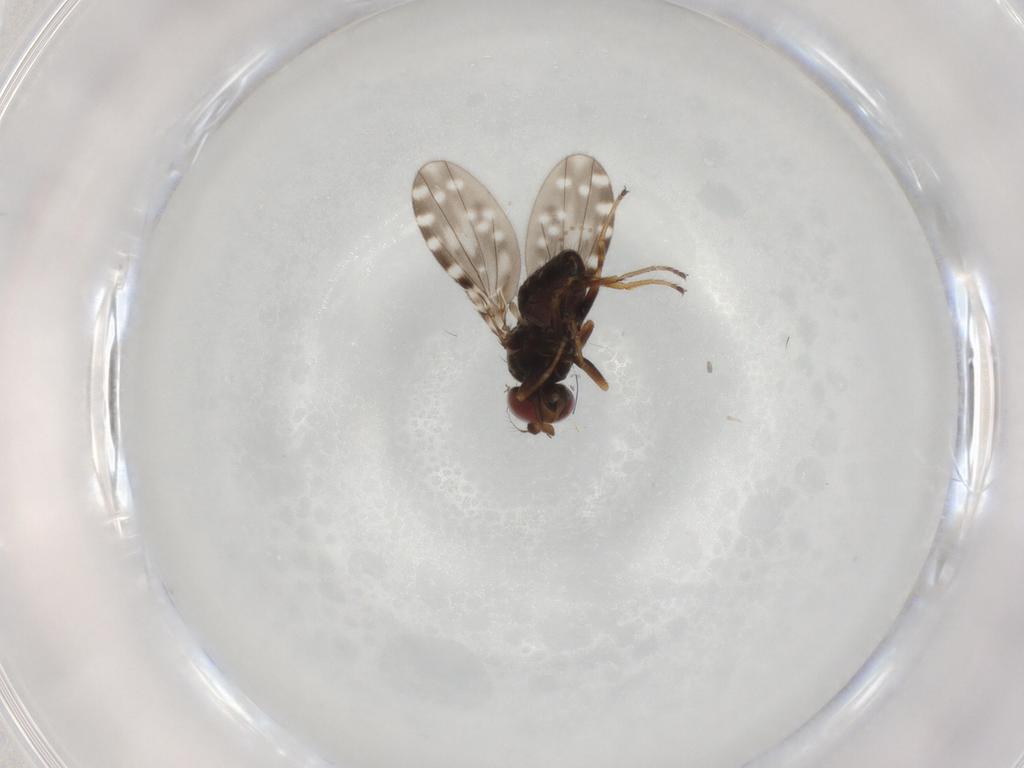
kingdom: Animalia
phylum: Arthropoda
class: Insecta
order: Diptera
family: Ephydridae
